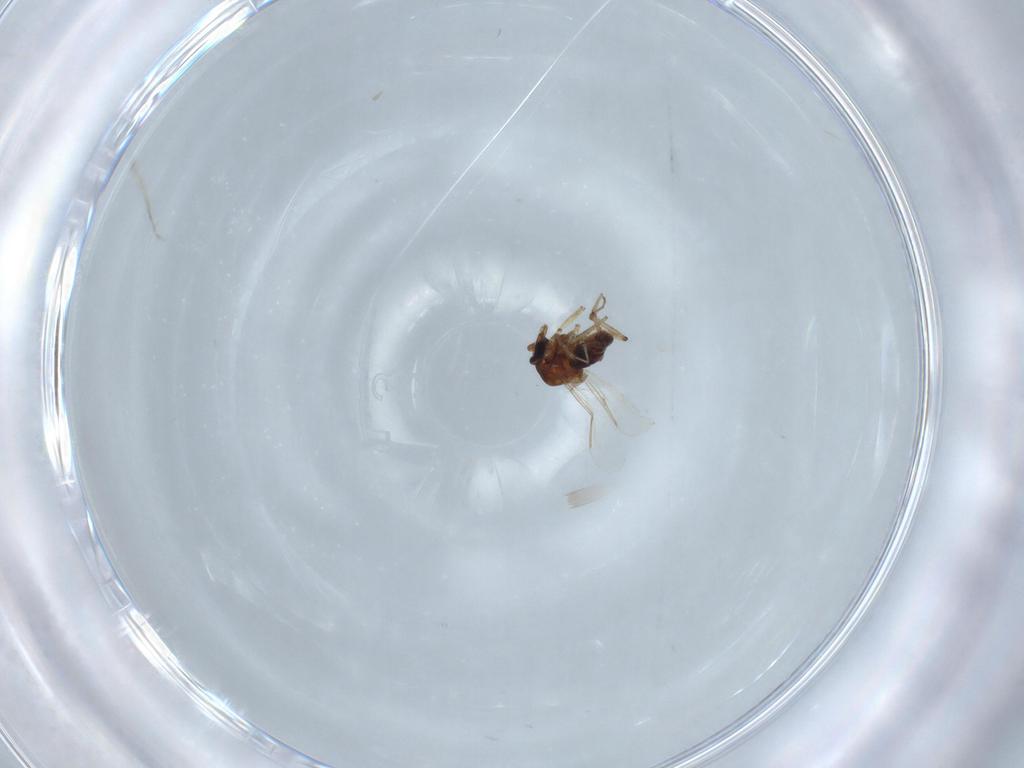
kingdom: Animalia
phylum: Arthropoda
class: Insecta
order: Diptera
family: Ceratopogonidae
